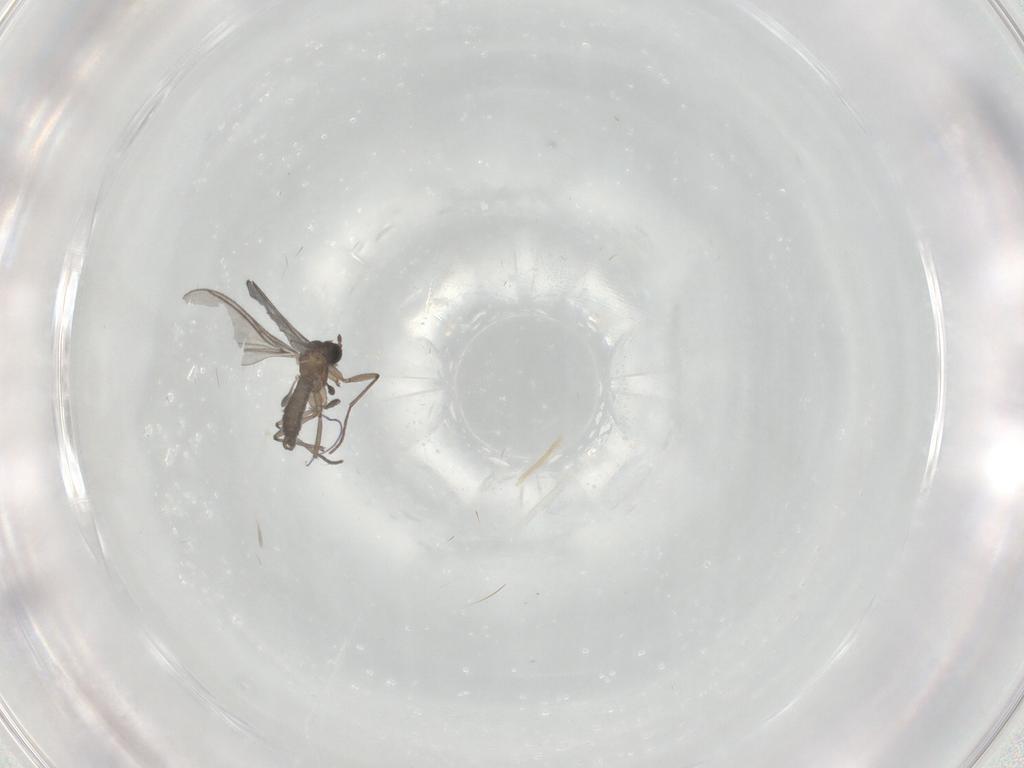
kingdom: Animalia
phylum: Arthropoda
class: Insecta
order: Diptera
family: Sciaridae
